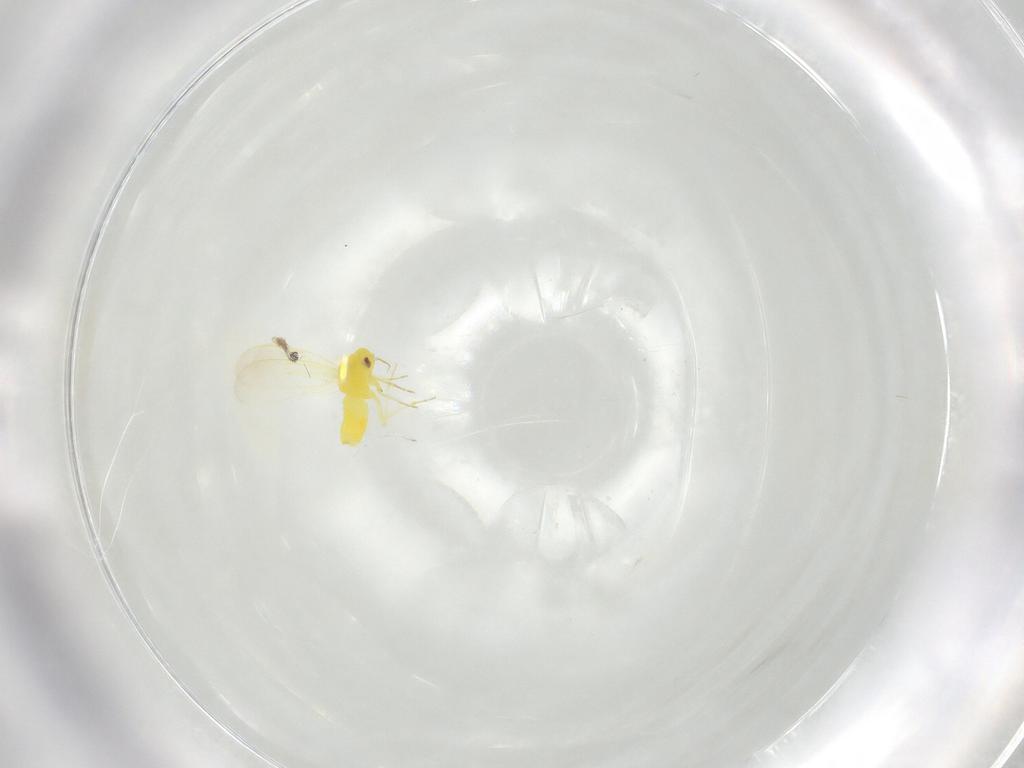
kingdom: Animalia
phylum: Arthropoda
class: Insecta
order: Hemiptera
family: Aleyrodidae
